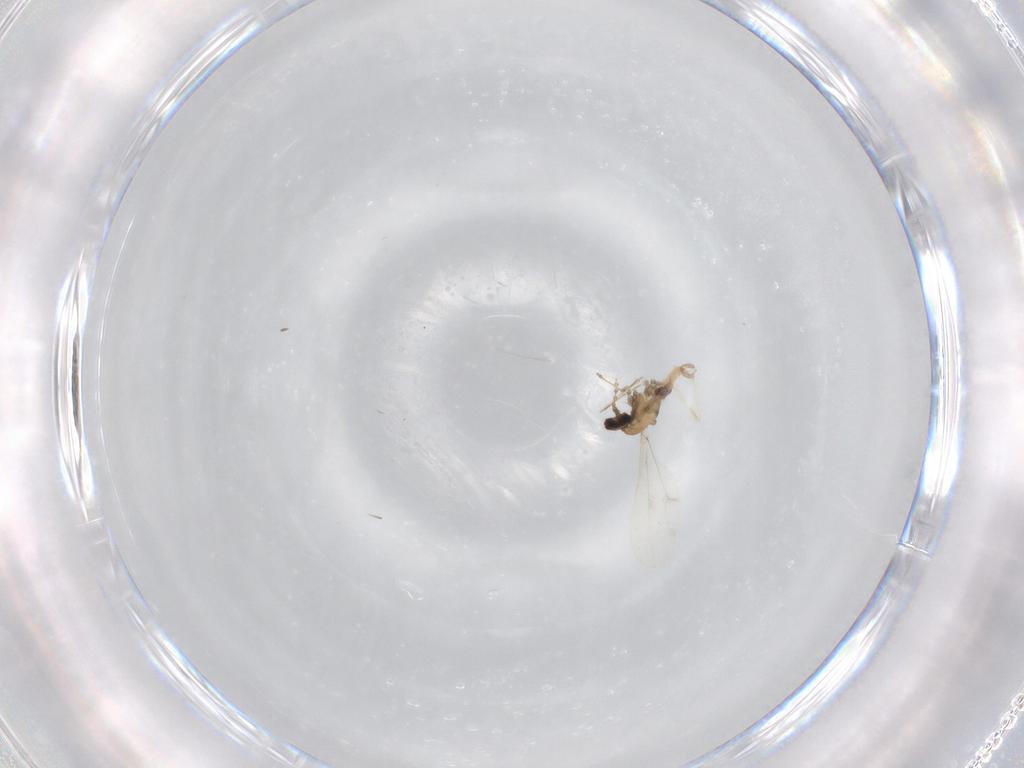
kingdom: Animalia
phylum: Arthropoda
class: Insecta
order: Diptera
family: Cecidomyiidae
